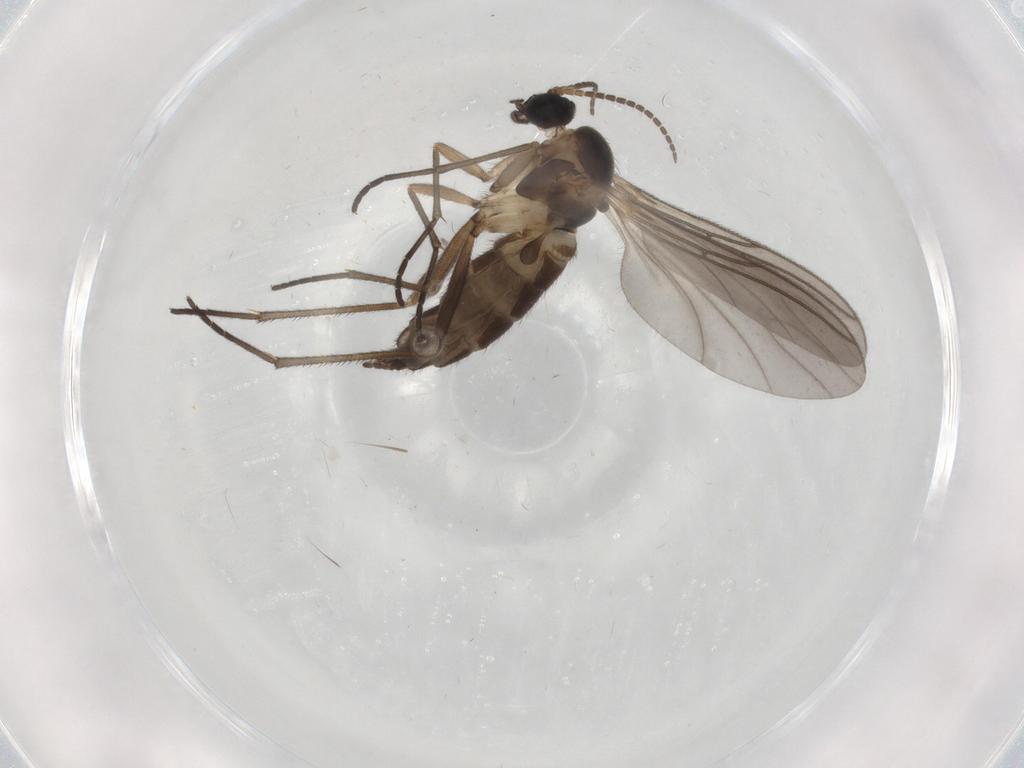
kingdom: Animalia
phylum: Arthropoda
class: Insecta
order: Diptera
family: Sciaridae
